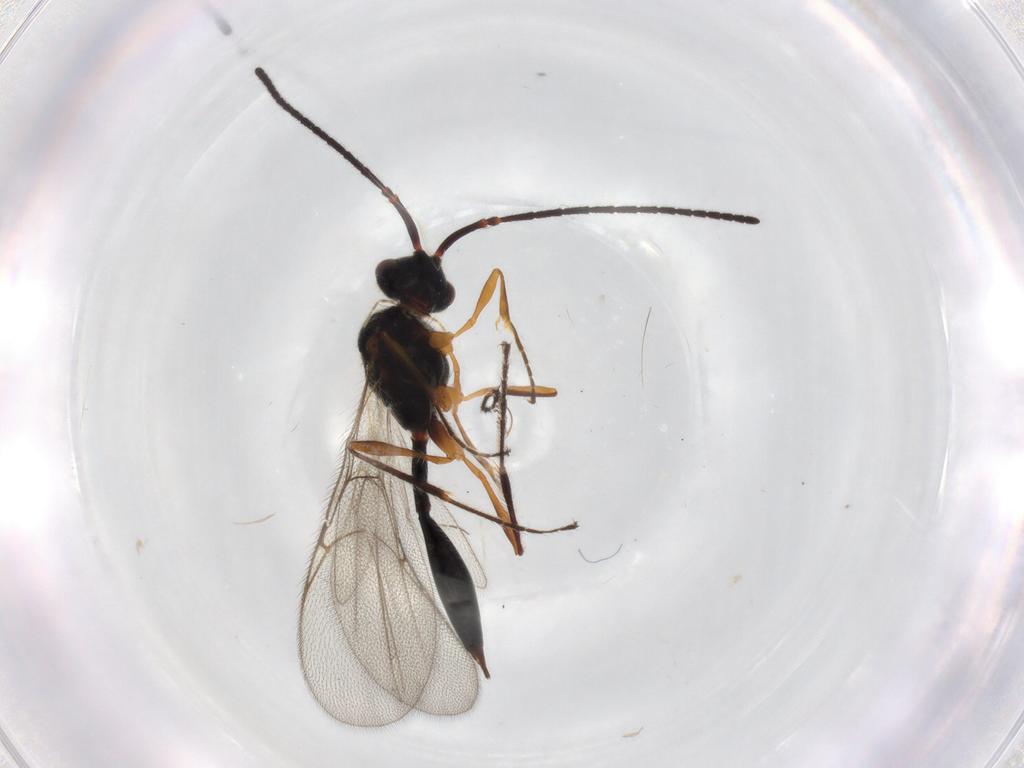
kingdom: Animalia
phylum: Arthropoda
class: Insecta
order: Hymenoptera
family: Diapriidae
